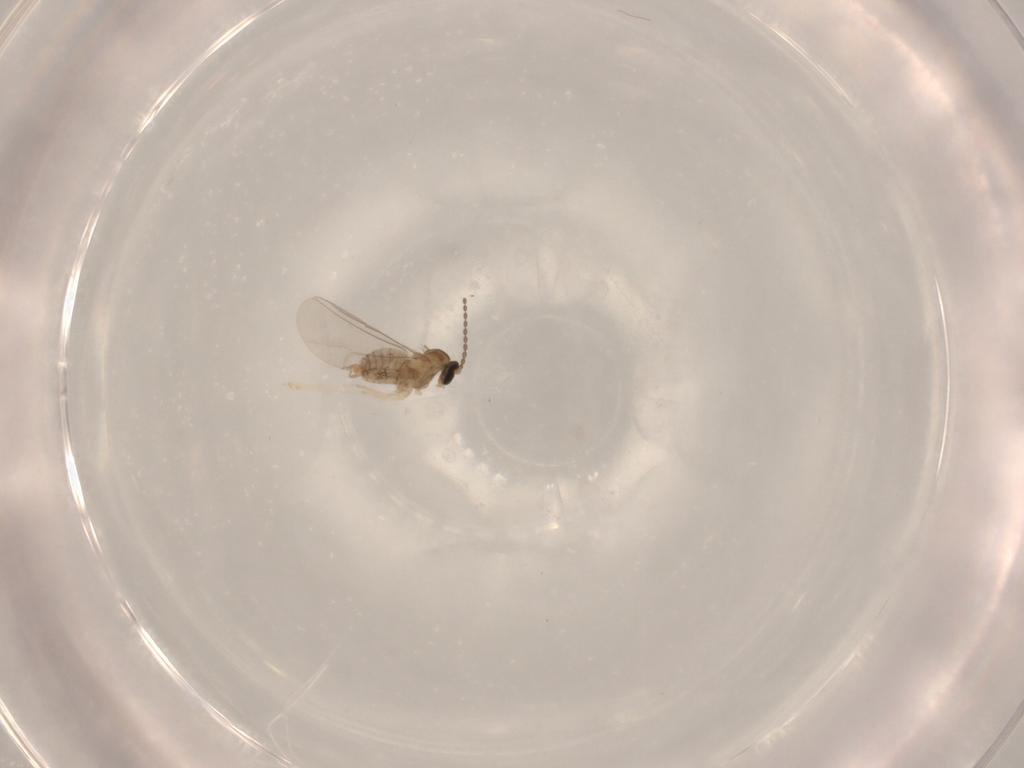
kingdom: Animalia
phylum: Arthropoda
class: Insecta
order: Diptera
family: Cecidomyiidae
